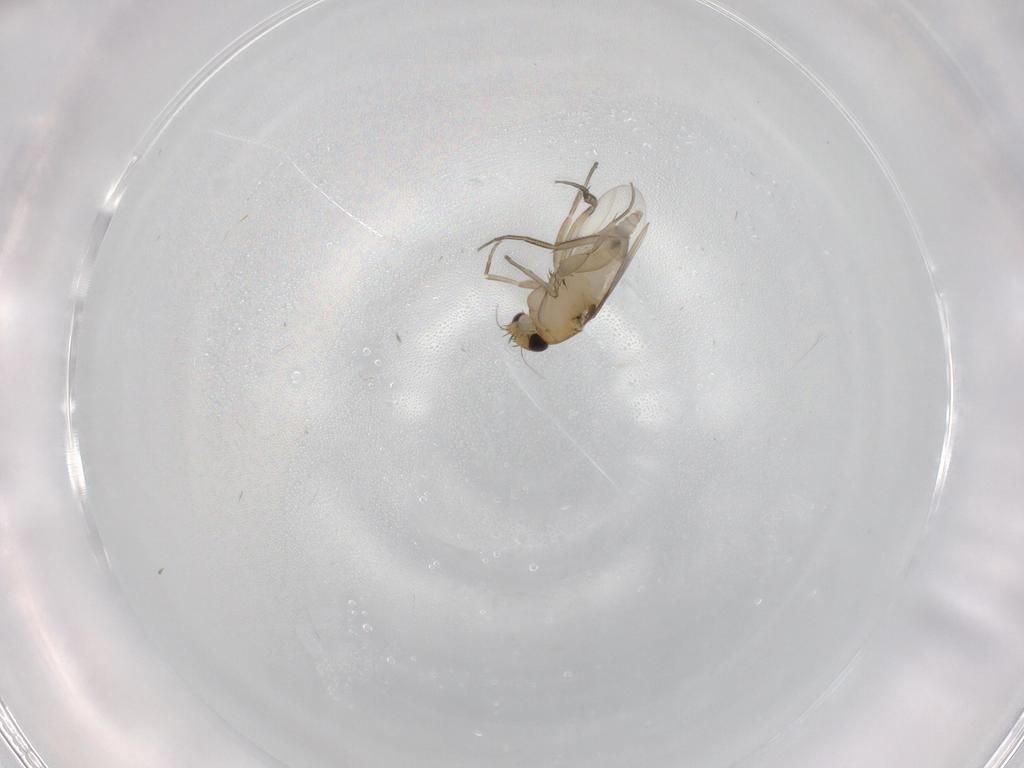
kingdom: Animalia
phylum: Arthropoda
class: Insecta
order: Diptera
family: Phoridae
